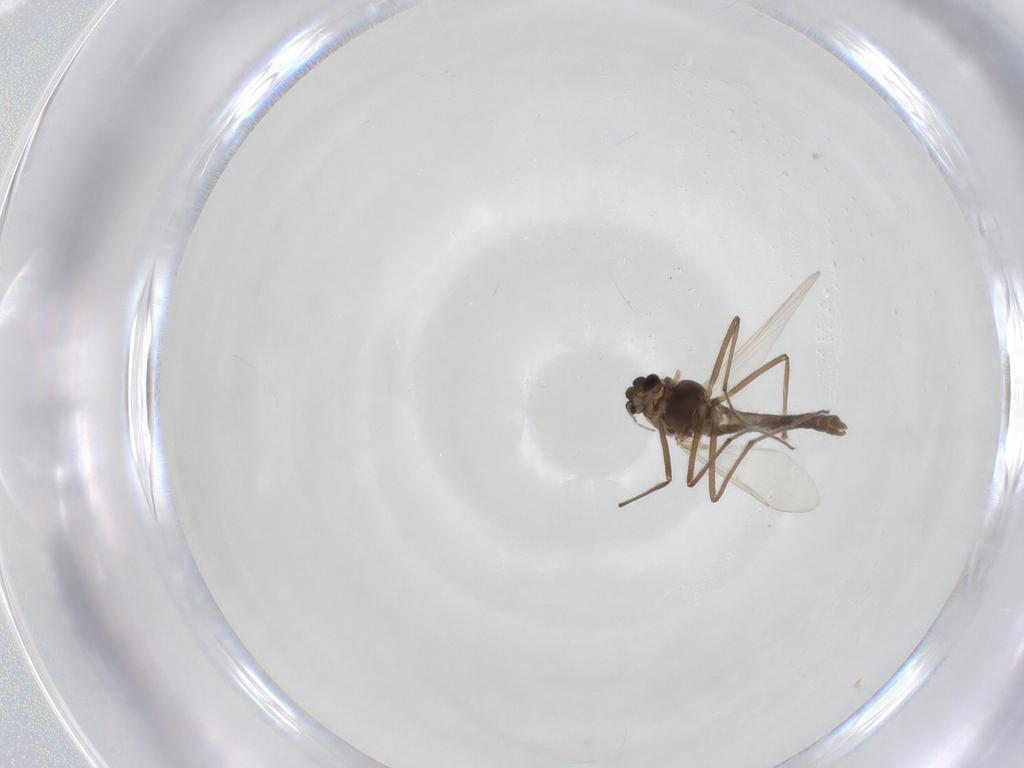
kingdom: Animalia
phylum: Arthropoda
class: Insecta
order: Diptera
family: Chironomidae
